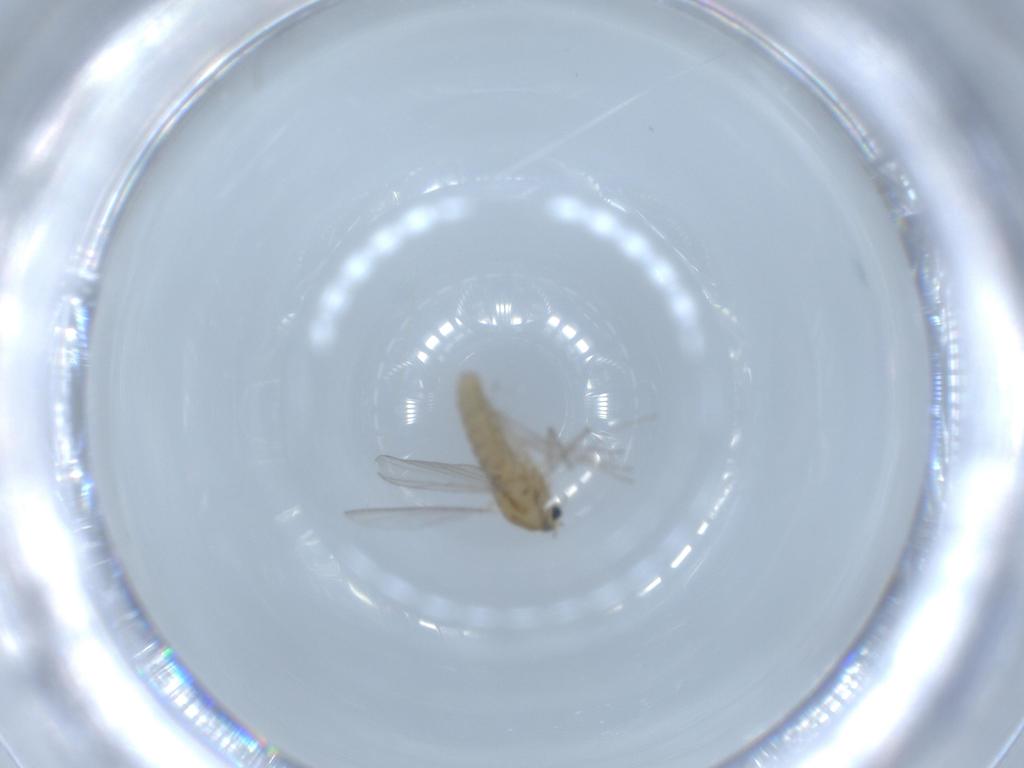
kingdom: Animalia
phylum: Arthropoda
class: Insecta
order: Diptera
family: Chironomidae
